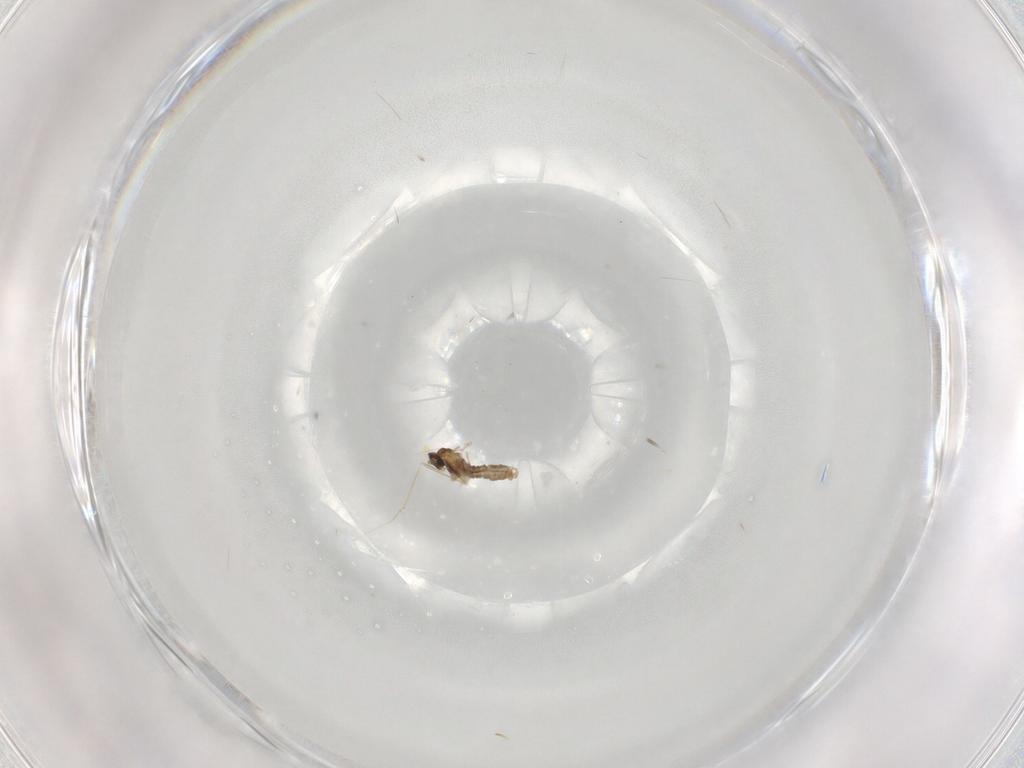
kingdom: Animalia
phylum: Arthropoda
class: Insecta
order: Diptera
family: Cecidomyiidae
